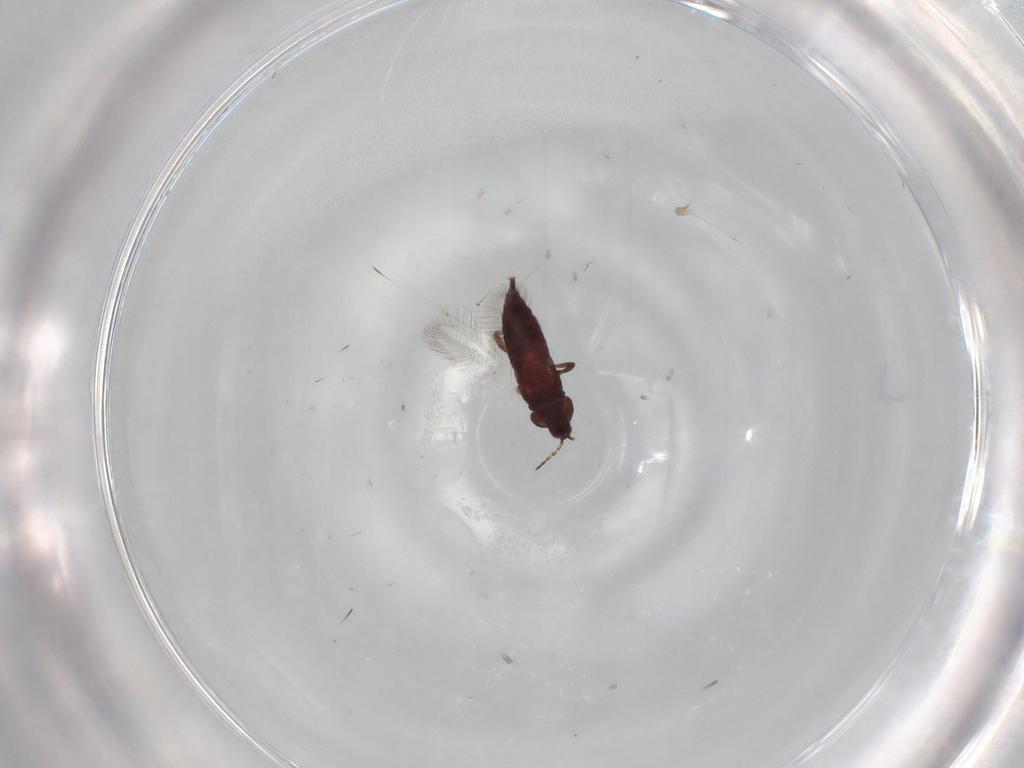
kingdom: Animalia
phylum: Arthropoda
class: Insecta
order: Thysanoptera
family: Phlaeothripidae
